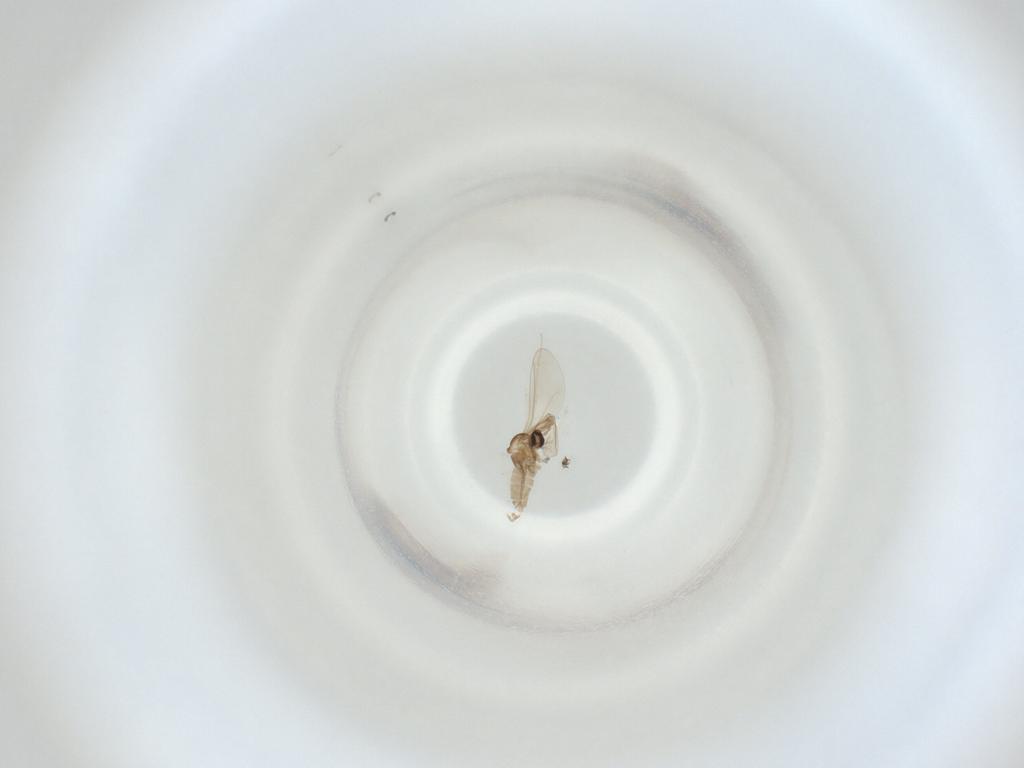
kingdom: Animalia
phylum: Arthropoda
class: Insecta
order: Diptera
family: Cecidomyiidae
